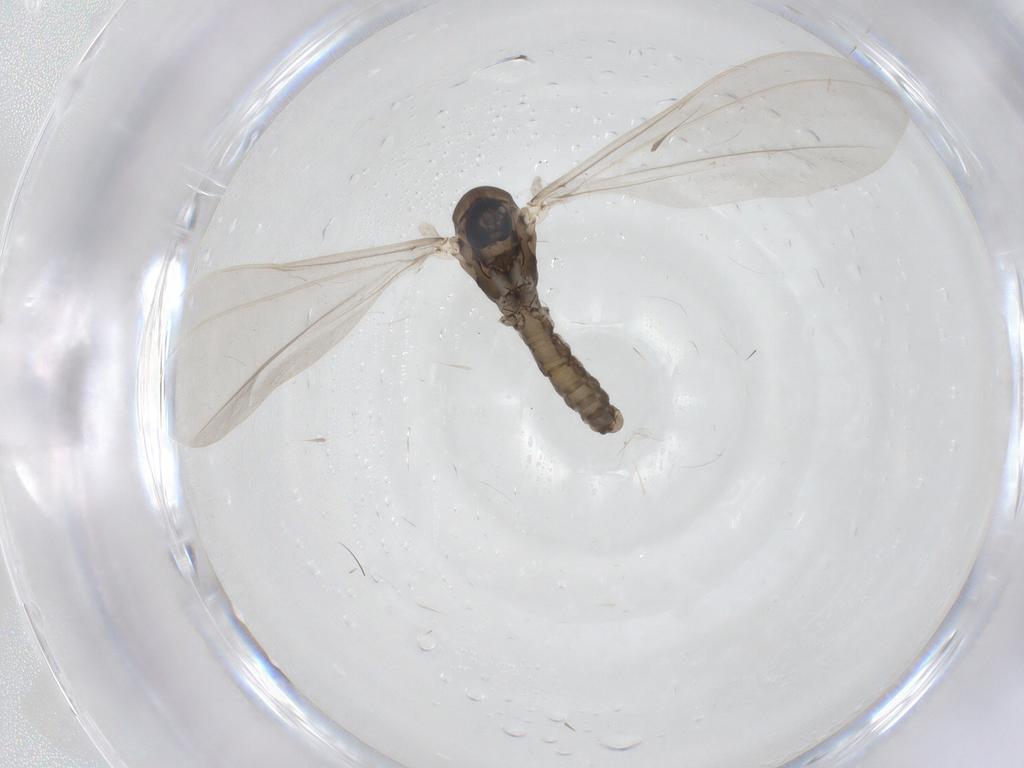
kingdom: Animalia
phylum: Arthropoda
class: Insecta
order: Diptera
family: Cecidomyiidae
